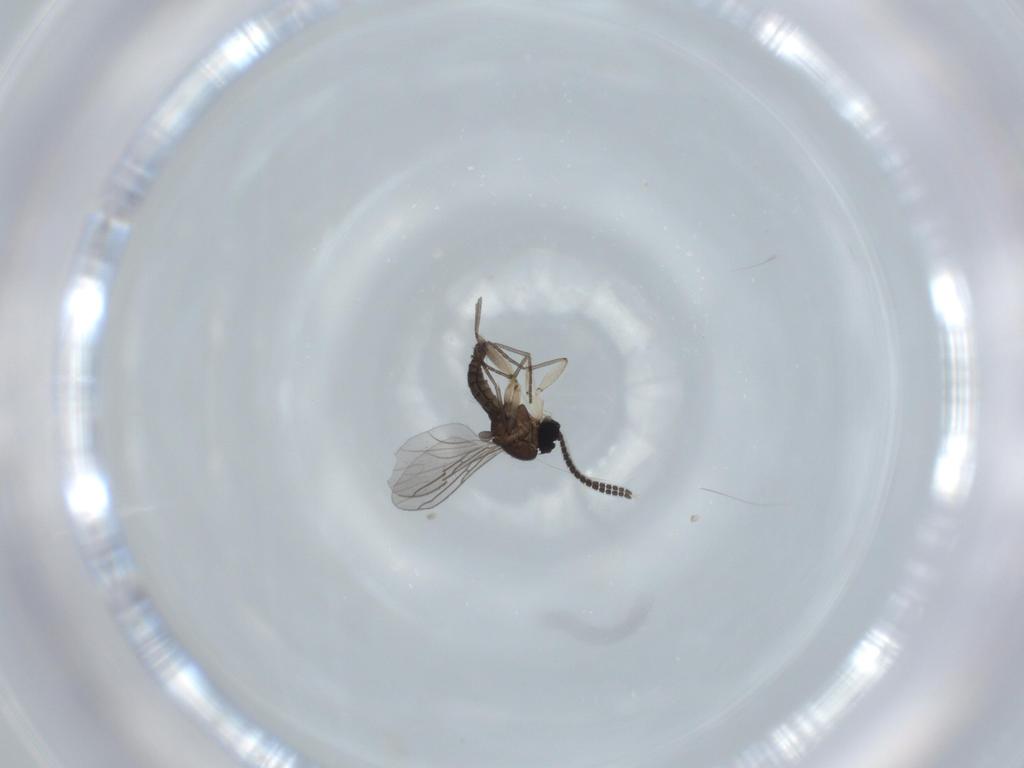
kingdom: Animalia
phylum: Arthropoda
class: Insecta
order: Diptera
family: Sciaridae
